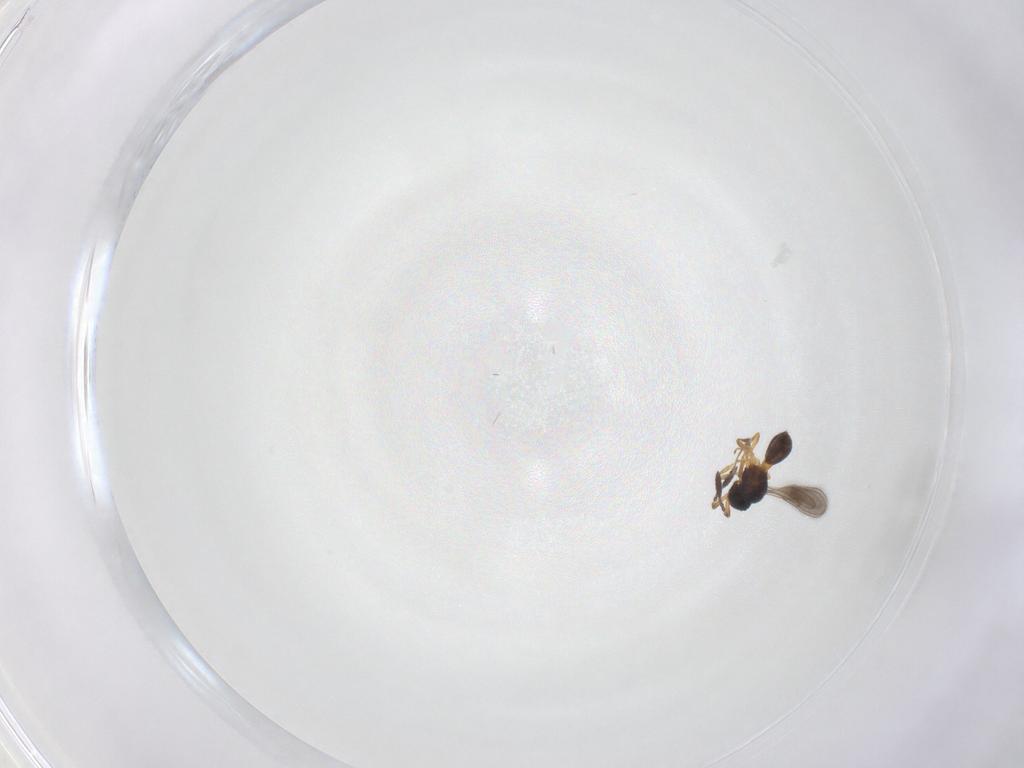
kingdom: Animalia
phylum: Arthropoda
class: Insecta
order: Hymenoptera
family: Scelionidae
